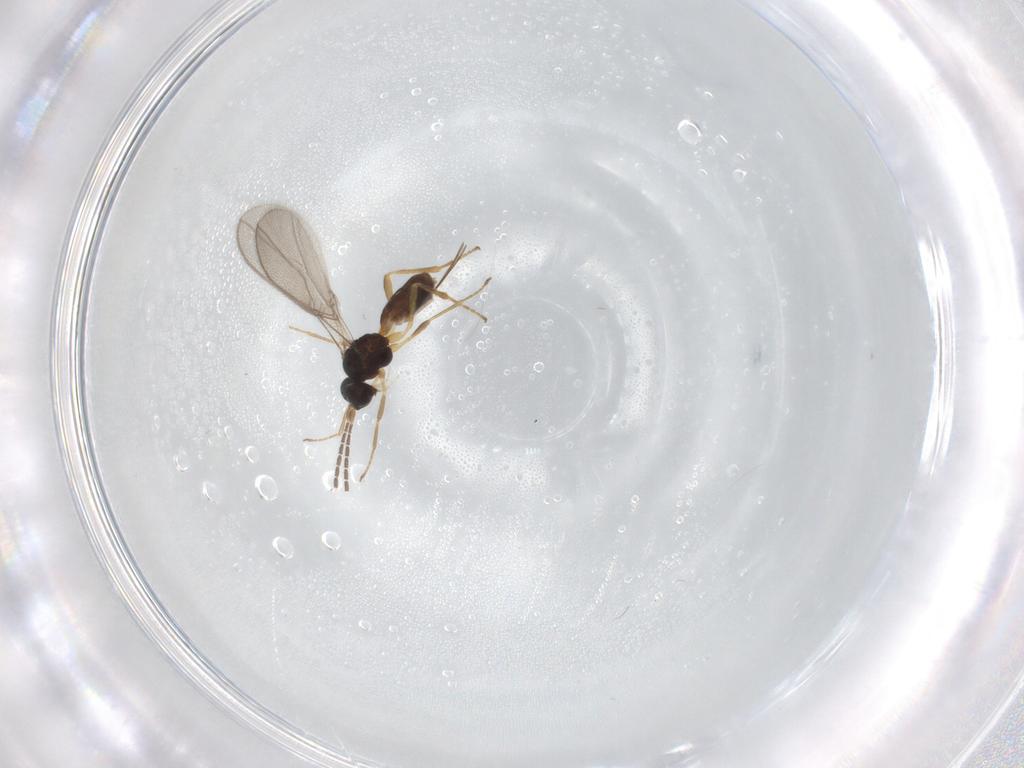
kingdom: Animalia
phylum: Arthropoda
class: Insecta
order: Hymenoptera
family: Braconidae
